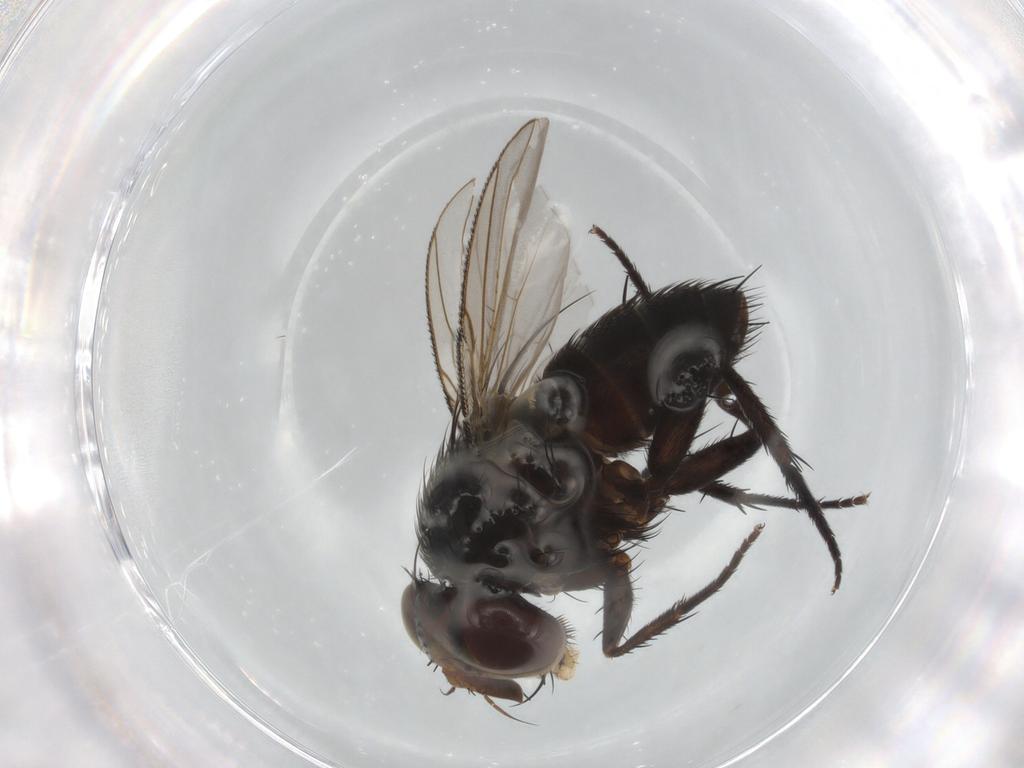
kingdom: Animalia
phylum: Arthropoda
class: Insecta
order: Diptera
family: Tachinidae
